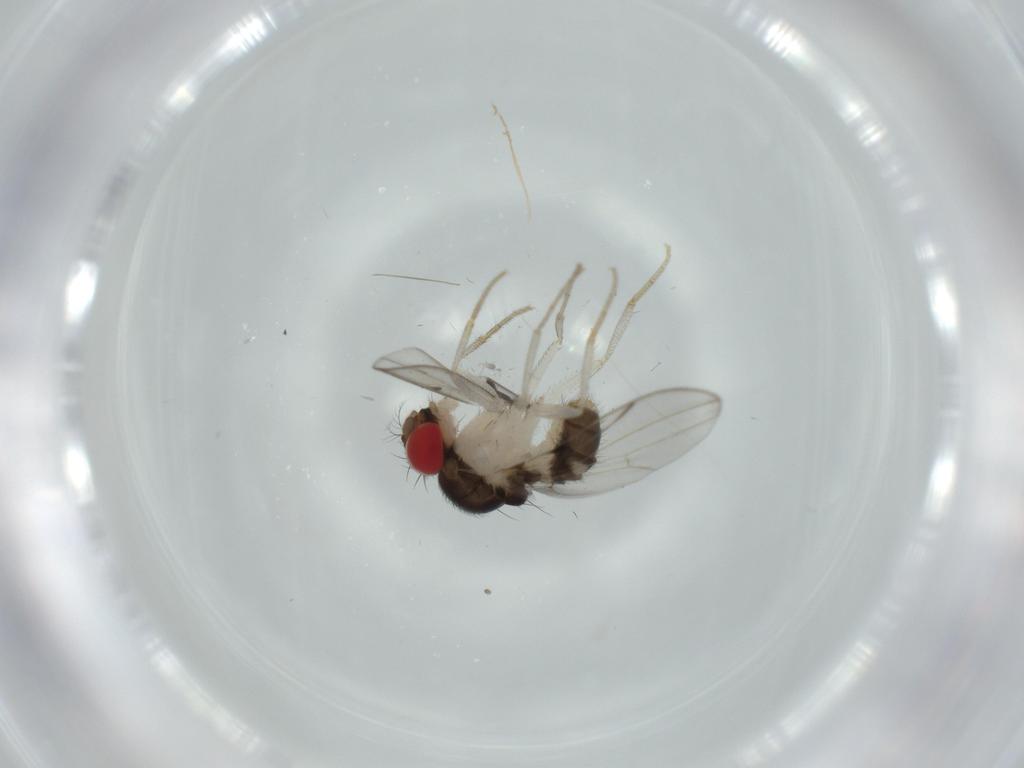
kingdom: Animalia
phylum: Arthropoda
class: Insecta
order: Diptera
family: Drosophilidae
